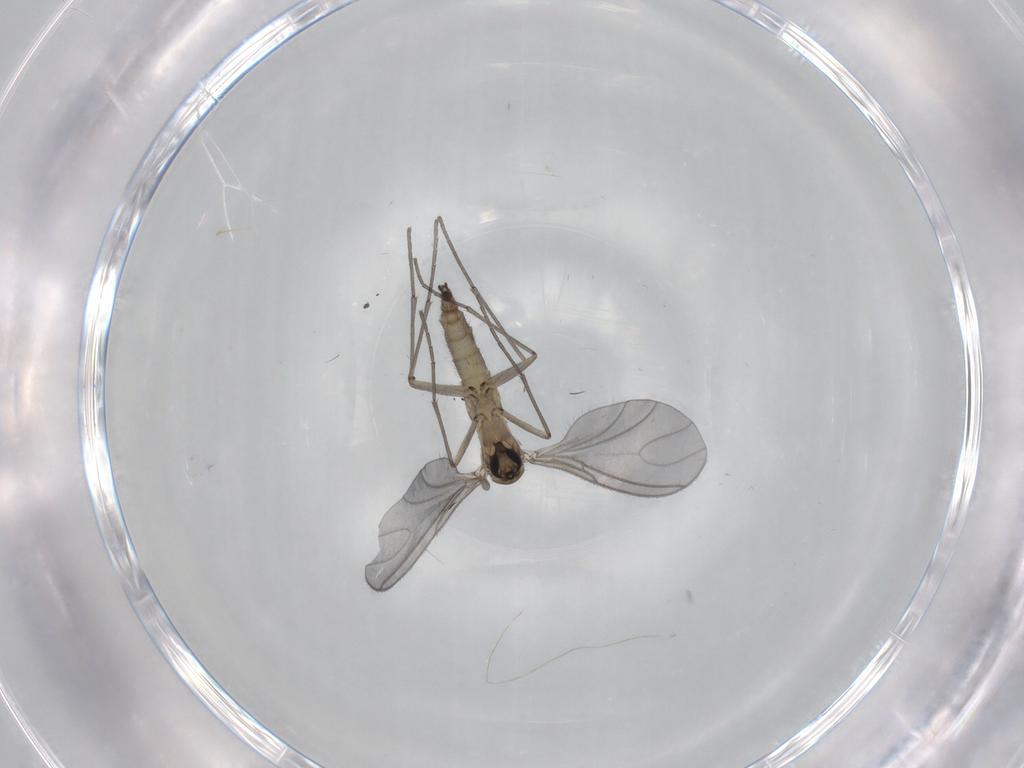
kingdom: Animalia
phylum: Arthropoda
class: Insecta
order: Diptera
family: Sciaridae
